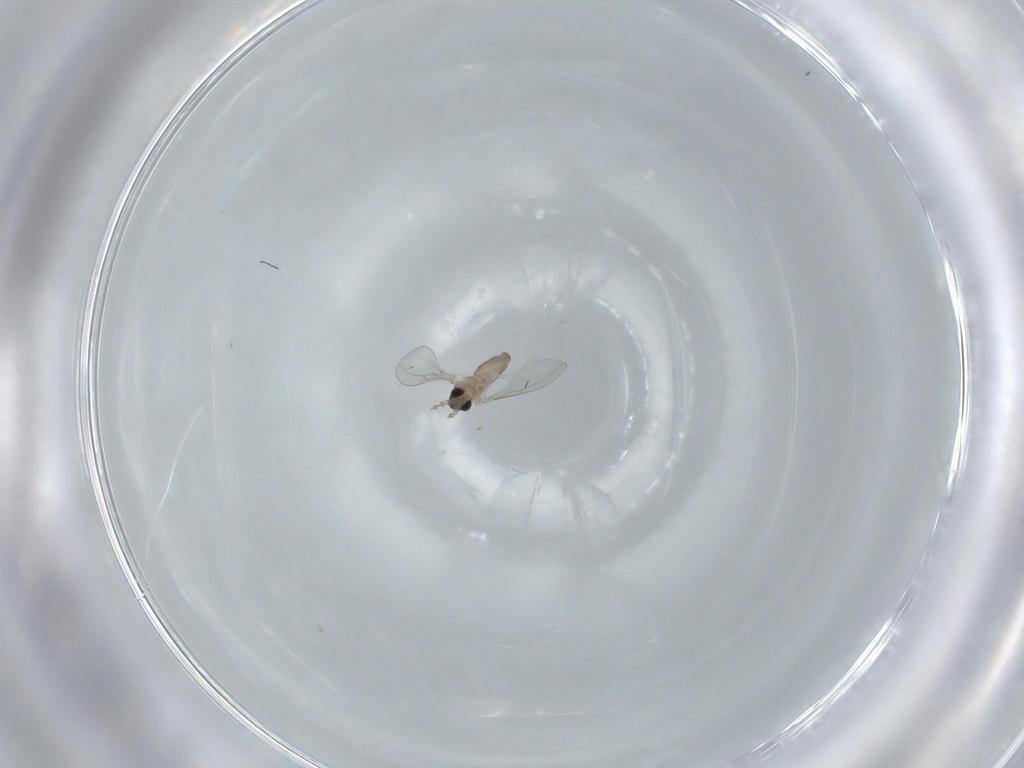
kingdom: Animalia
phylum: Arthropoda
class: Insecta
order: Diptera
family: Cecidomyiidae
